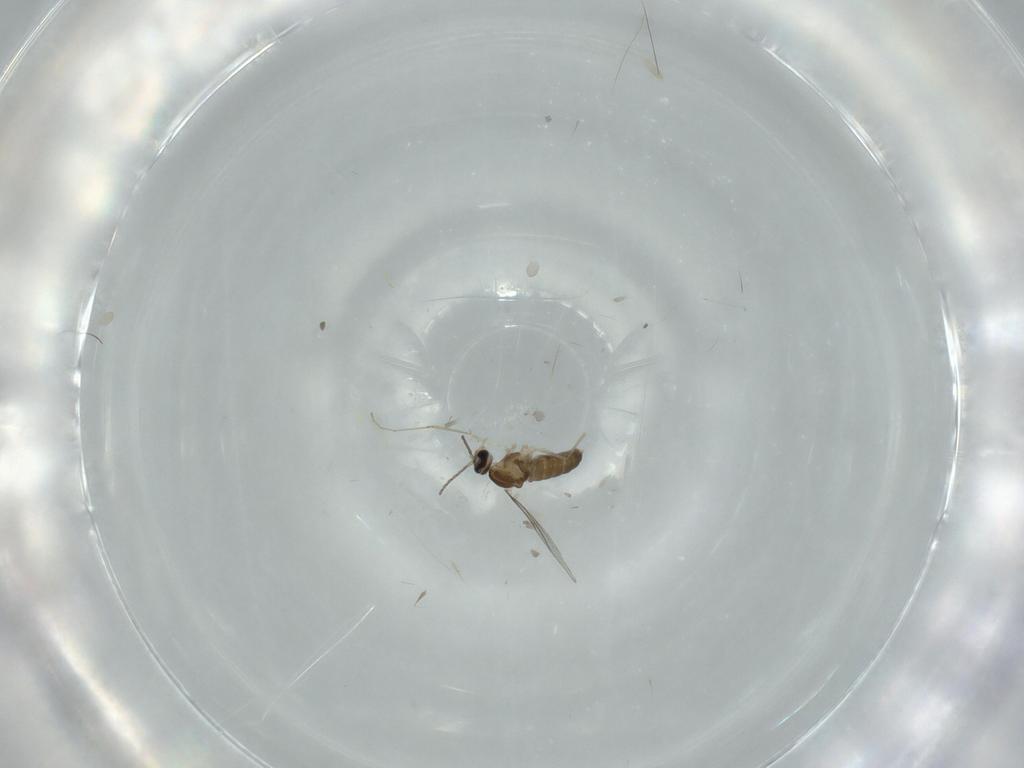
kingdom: Animalia
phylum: Arthropoda
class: Insecta
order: Diptera
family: Cecidomyiidae
